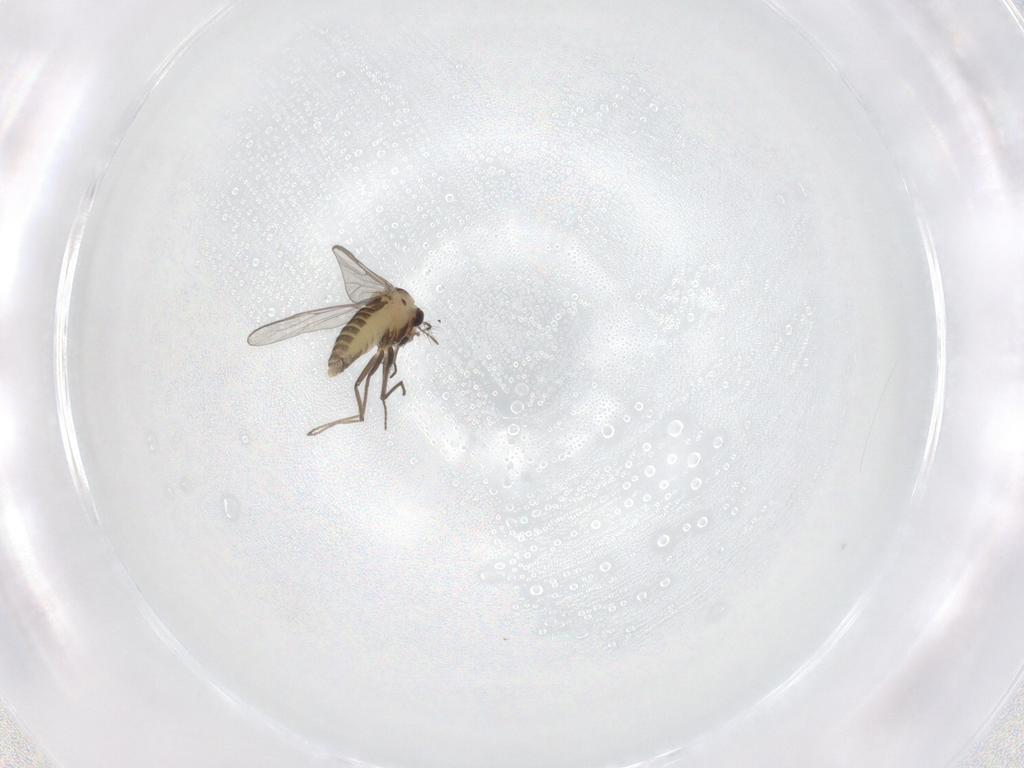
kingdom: Animalia
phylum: Arthropoda
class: Insecta
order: Diptera
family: Chironomidae
